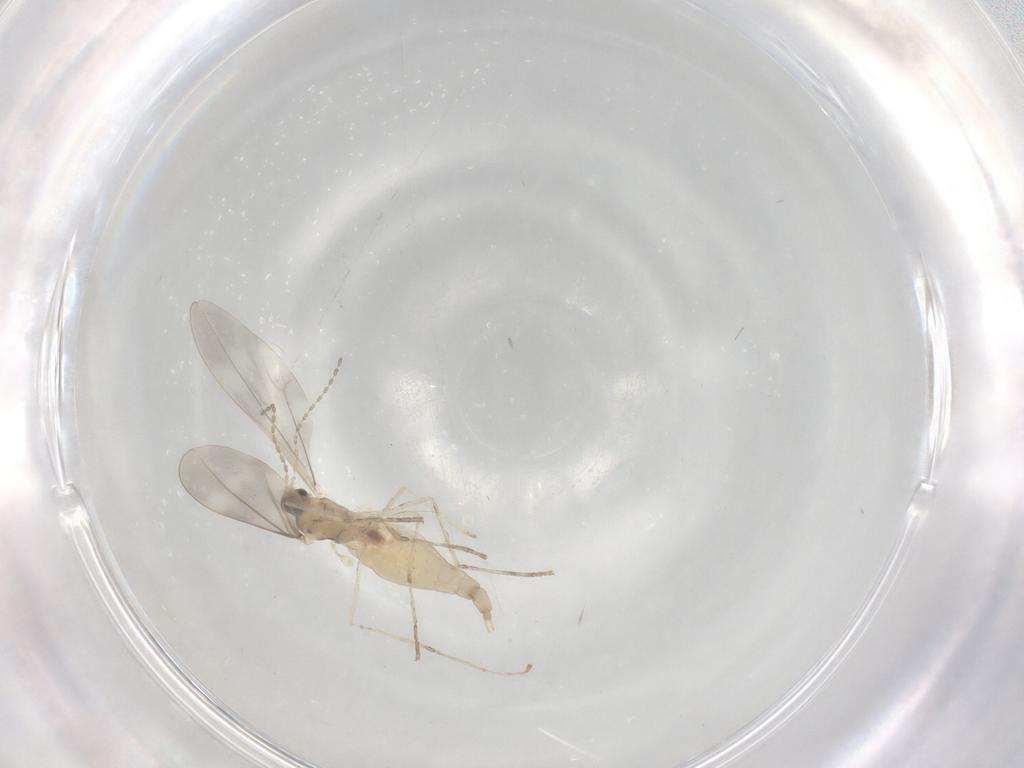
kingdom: Animalia
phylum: Arthropoda
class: Insecta
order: Diptera
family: Cecidomyiidae
